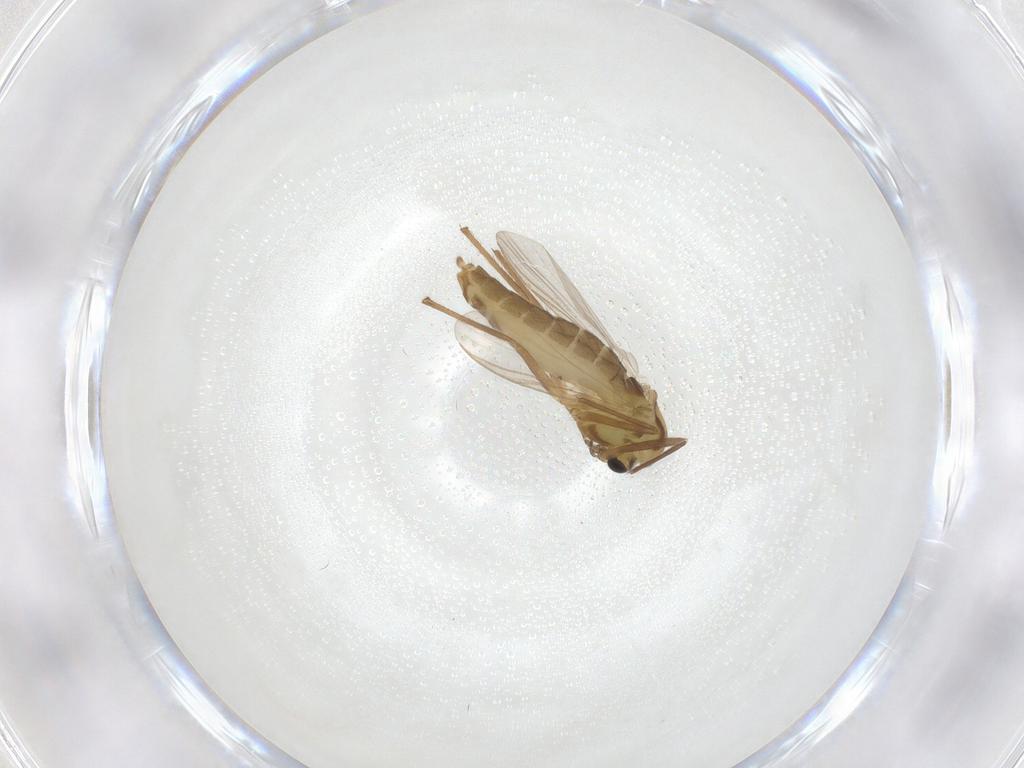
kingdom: Animalia
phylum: Arthropoda
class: Insecta
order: Diptera
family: Chironomidae
